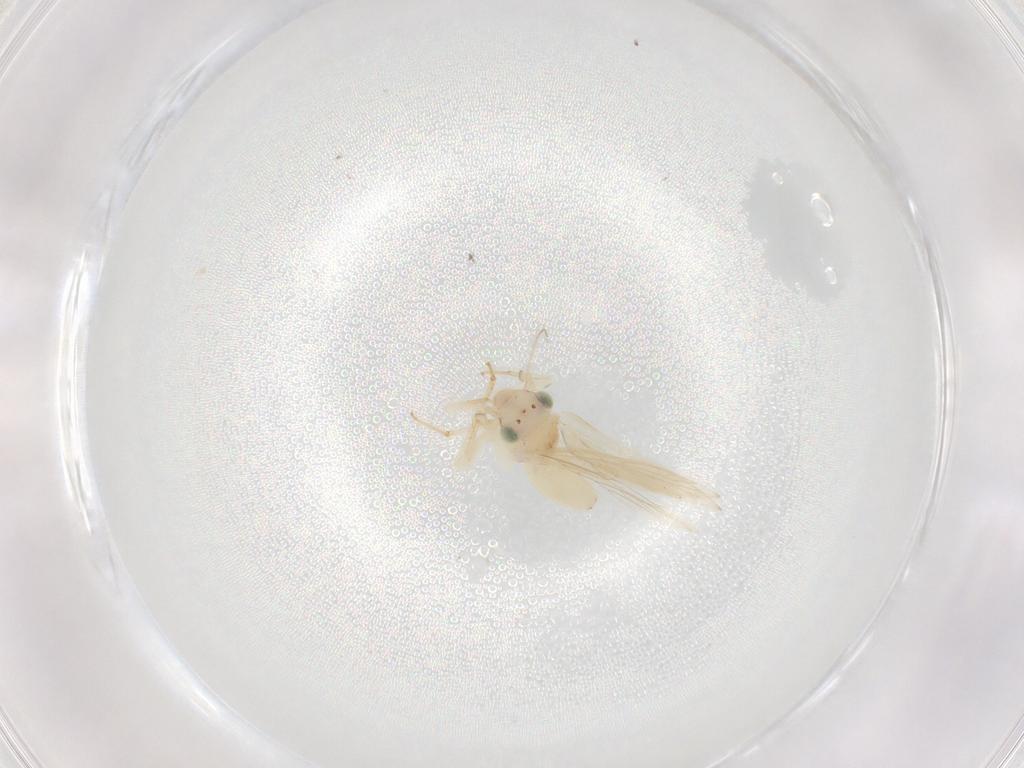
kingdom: Animalia
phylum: Arthropoda
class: Insecta
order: Psocodea
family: Lepidopsocidae
